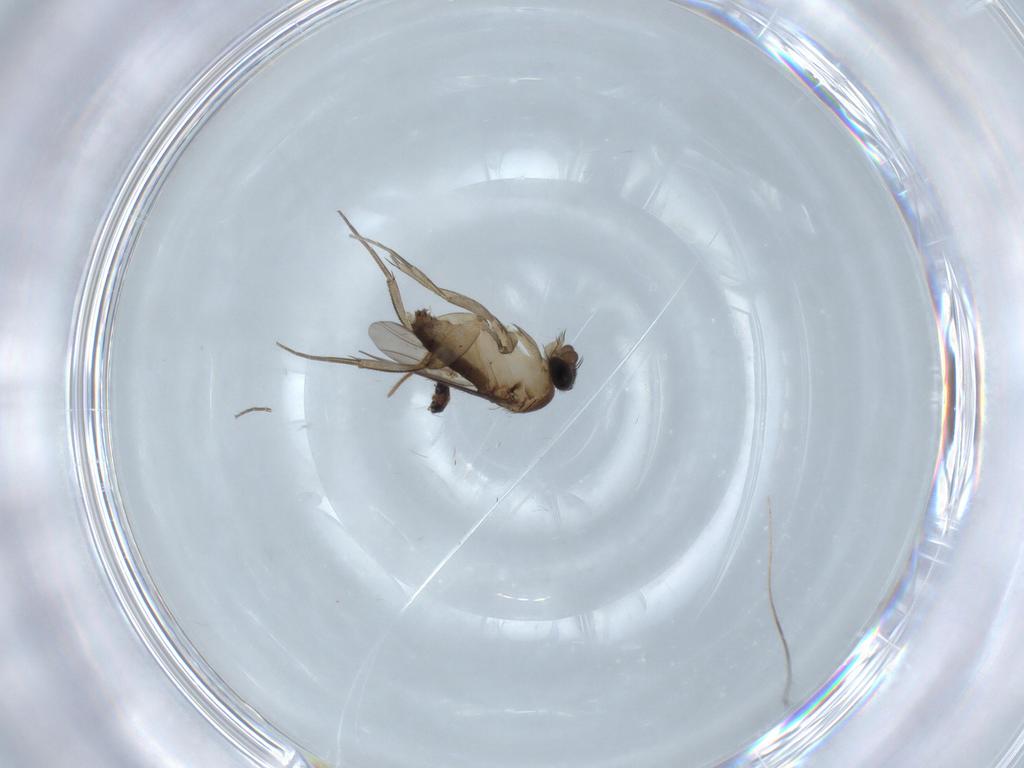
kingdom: Animalia
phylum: Arthropoda
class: Insecta
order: Diptera
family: Phoridae
